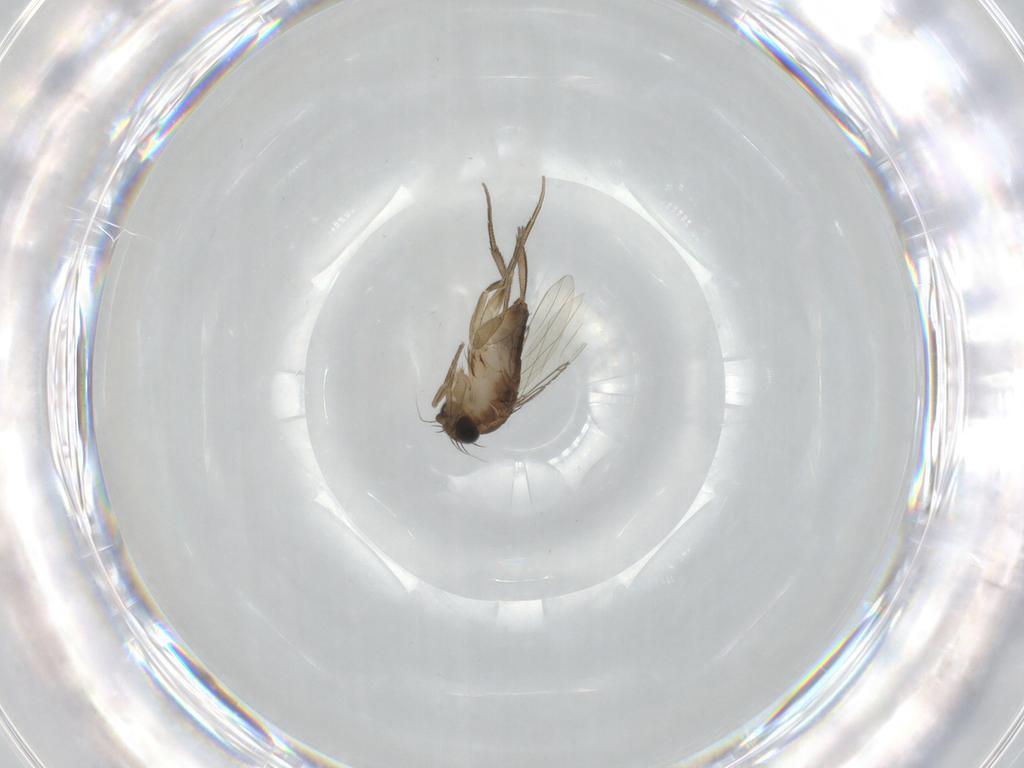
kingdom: Animalia
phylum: Arthropoda
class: Insecta
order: Diptera
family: Phoridae
